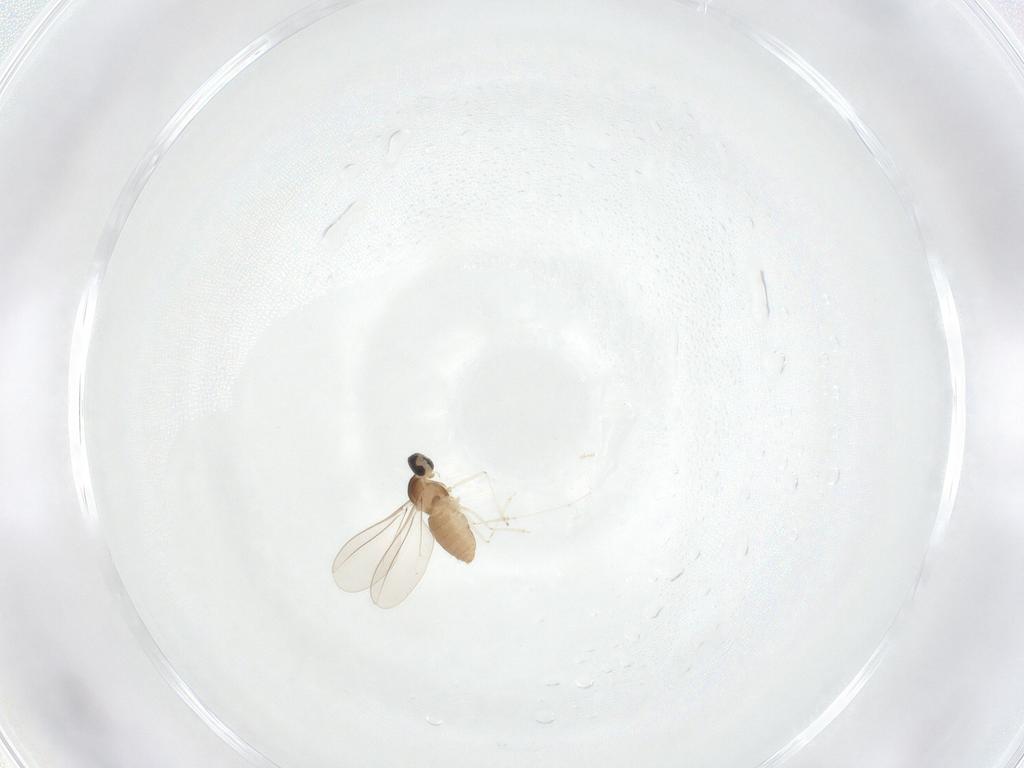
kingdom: Animalia
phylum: Arthropoda
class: Insecta
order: Diptera
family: Cecidomyiidae
